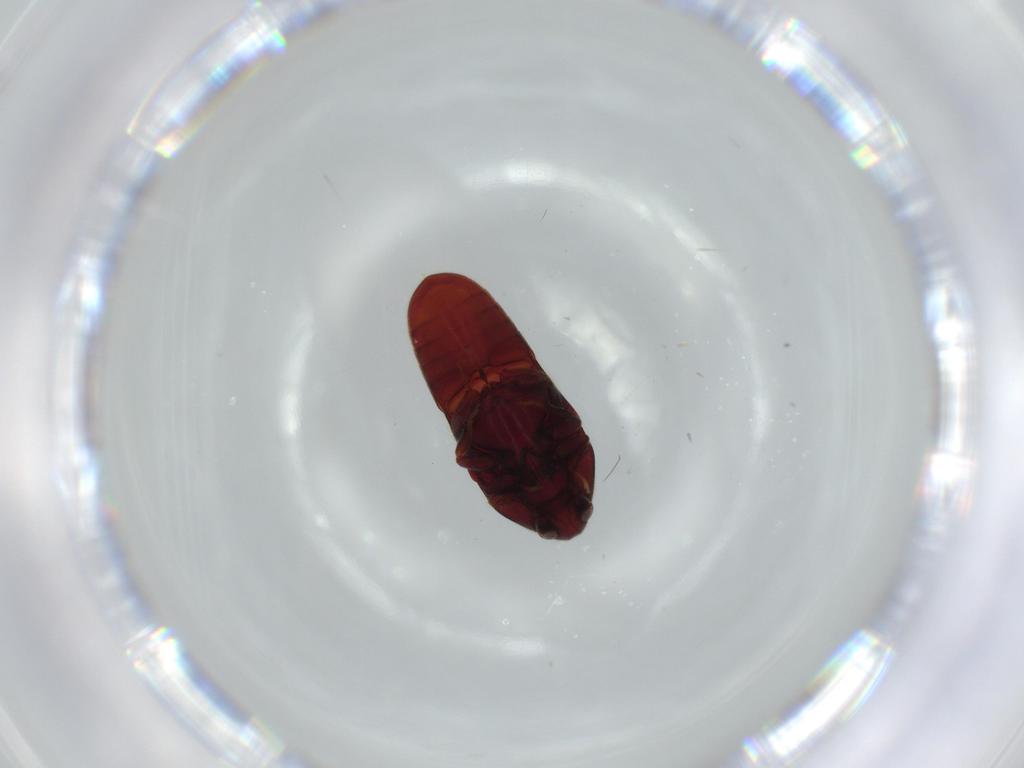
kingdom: Animalia
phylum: Arthropoda
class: Insecta
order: Coleoptera
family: Throscidae
